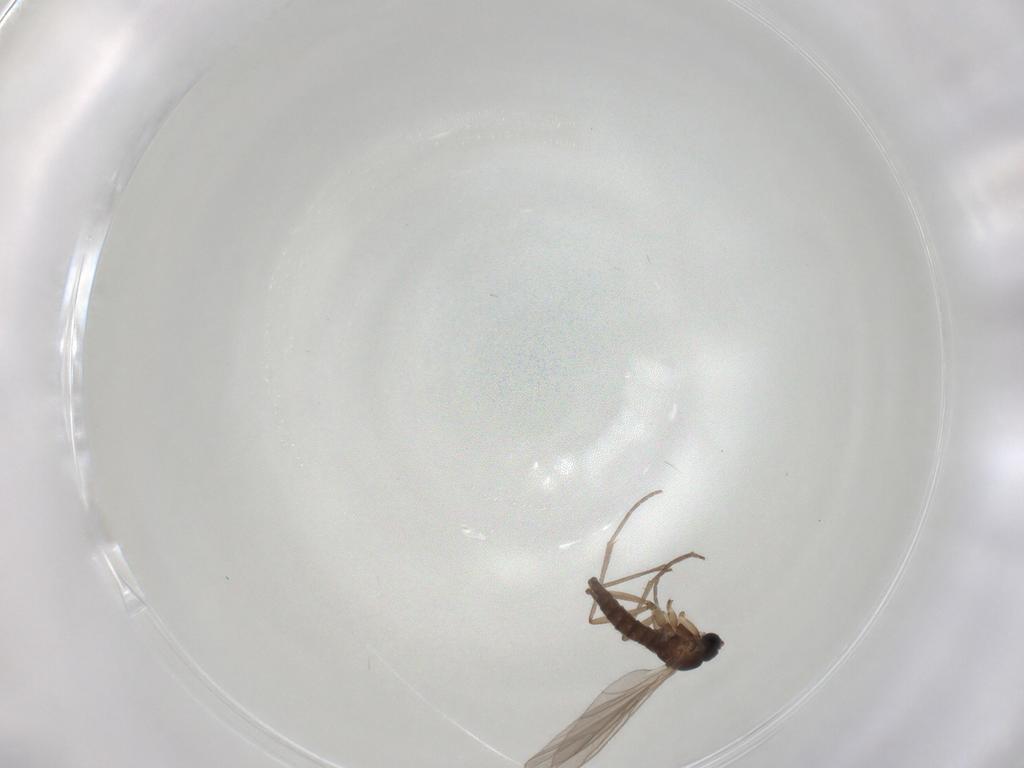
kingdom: Animalia
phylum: Arthropoda
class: Insecta
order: Diptera
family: Sciaridae
